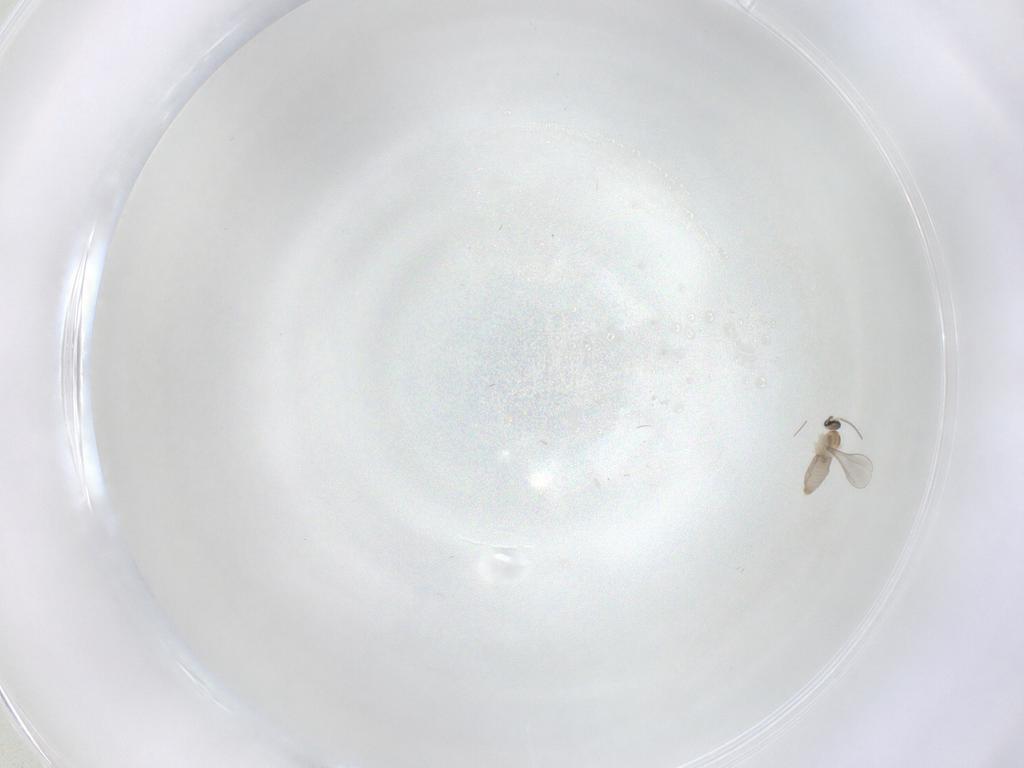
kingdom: Animalia
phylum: Arthropoda
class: Insecta
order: Diptera
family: Cecidomyiidae
